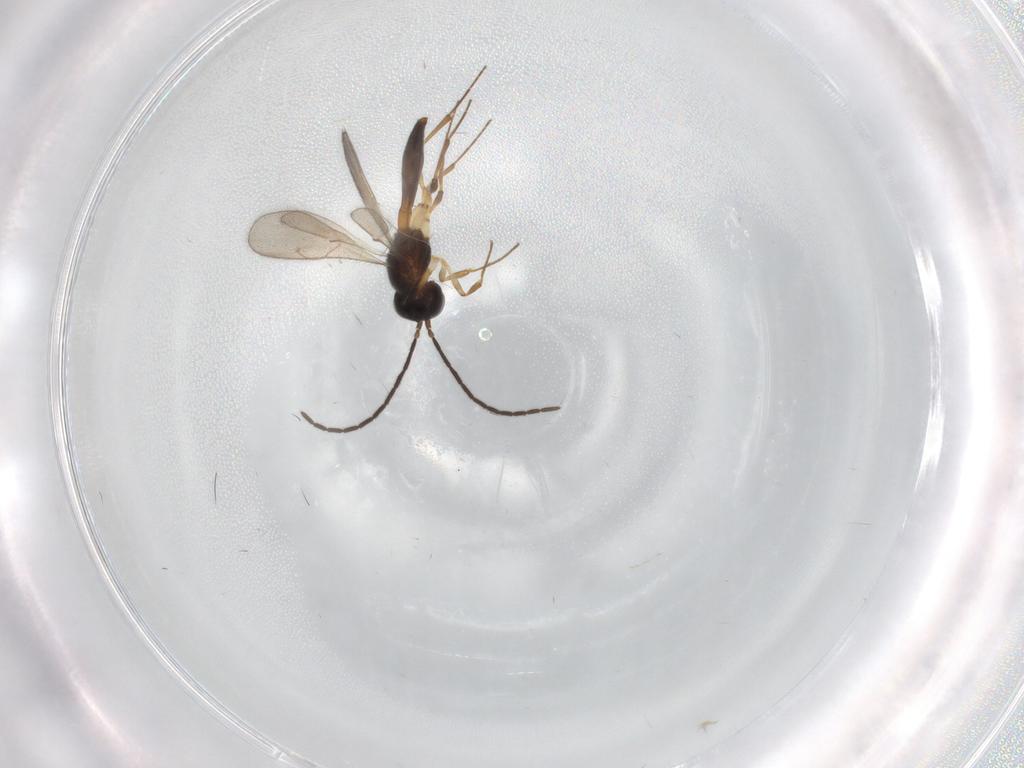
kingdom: Animalia
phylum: Arthropoda
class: Insecta
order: Hymenoptera
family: Scelionidae
